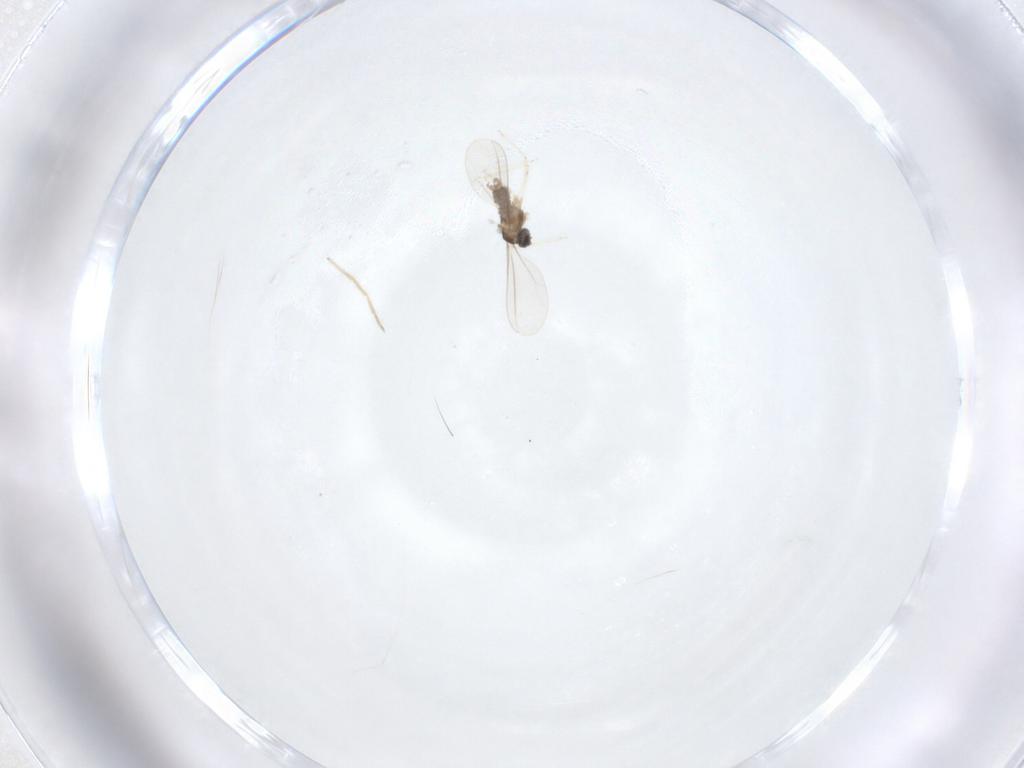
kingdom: Animalia
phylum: Arthropoda
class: Insecta
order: Diptera
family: Cecidomyiidae
